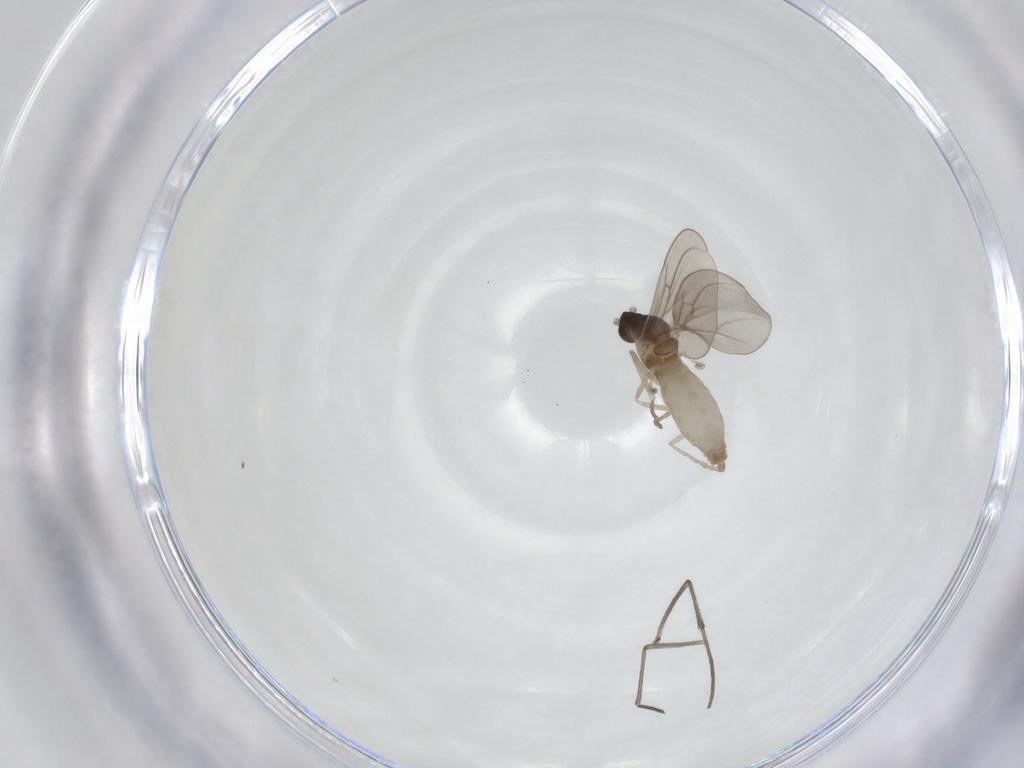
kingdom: Animalia
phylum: Arthropoda
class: Insecta
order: Diptera
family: Cecidomyiidae
